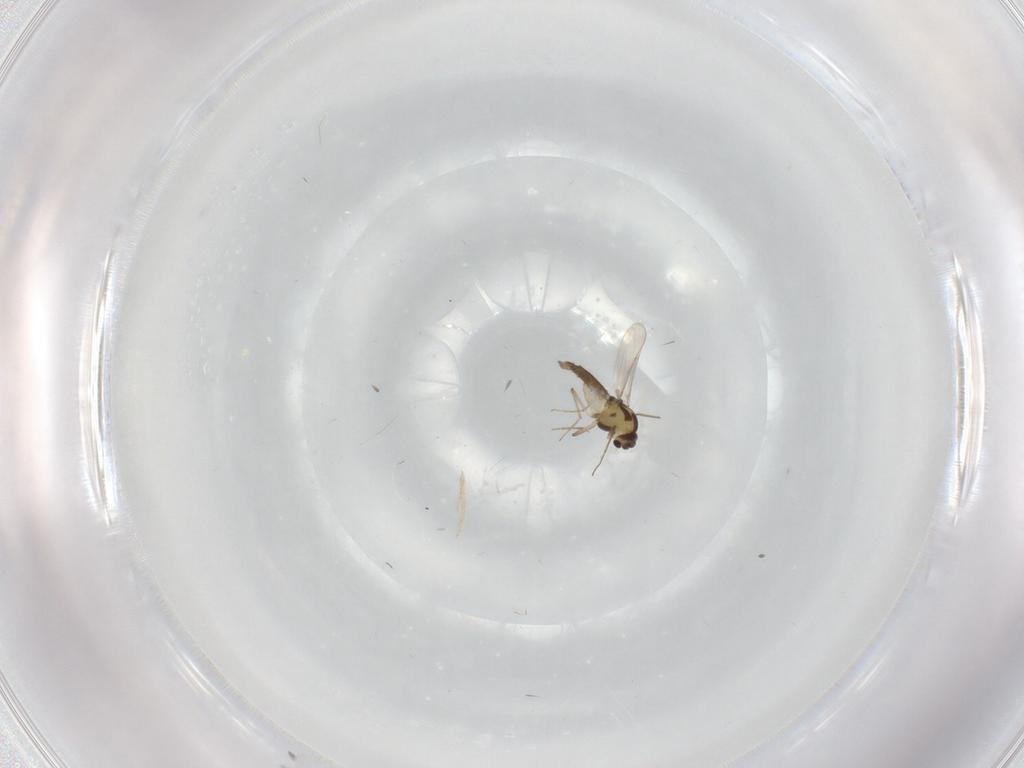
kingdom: Animalia
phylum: Arthropoda
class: Insecta
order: Diptera
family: Chironomidae
